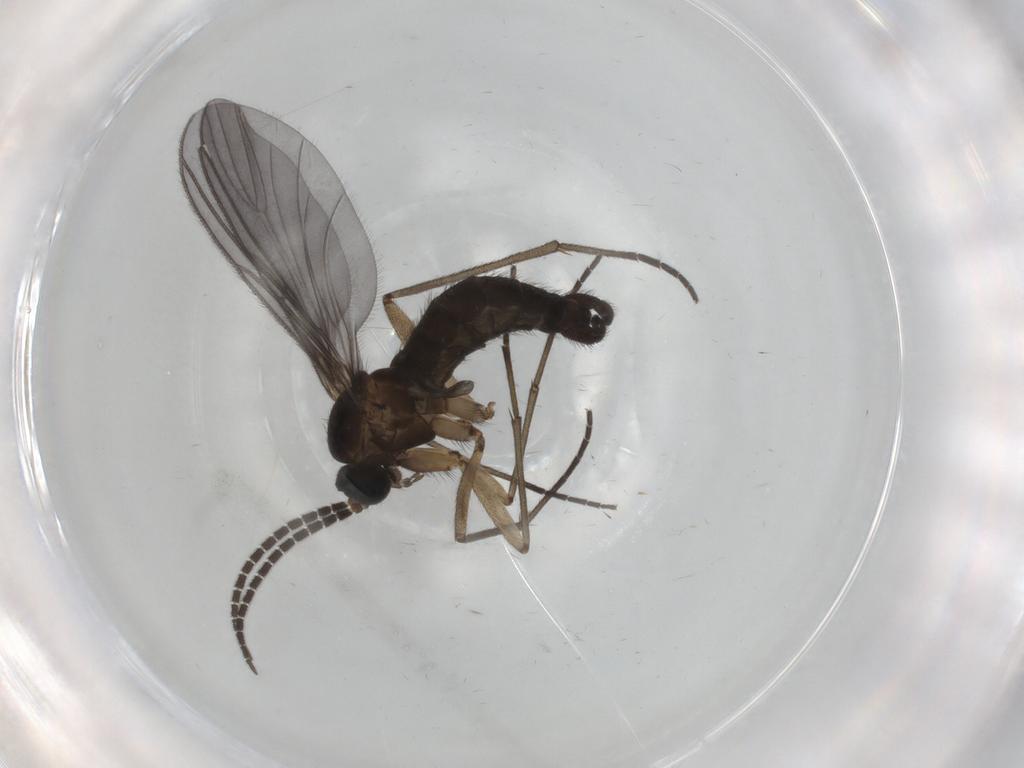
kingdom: Animalia
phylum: Arthropoda
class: Insecta
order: Diptera
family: Sciaridae
